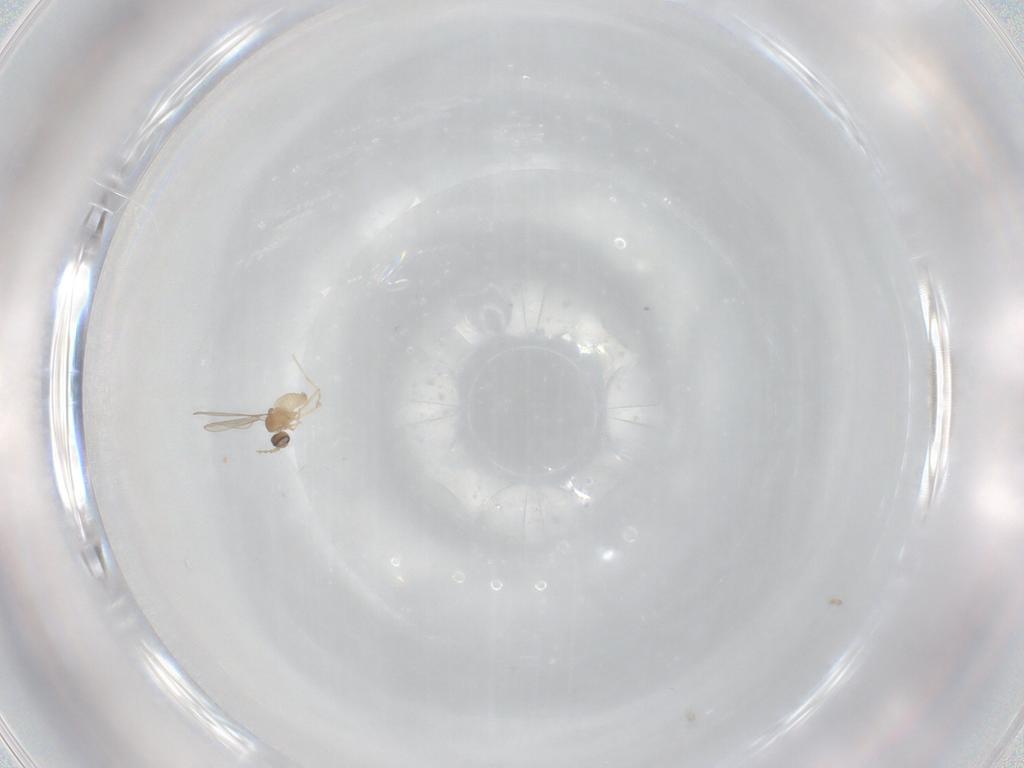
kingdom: Animalia
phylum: Arthropoda
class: Insecta
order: Diptera
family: Cecidomyiidae
